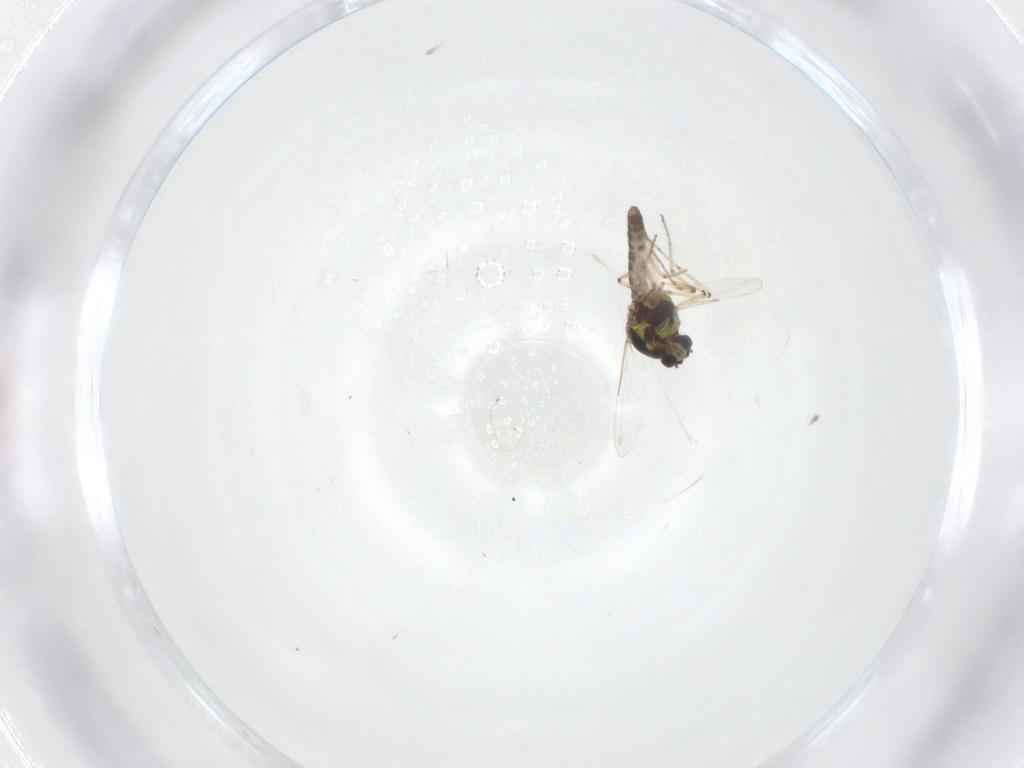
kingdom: Animalia
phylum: Arthropoda
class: Insecta
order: Diptera
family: Ceratopogonidae
